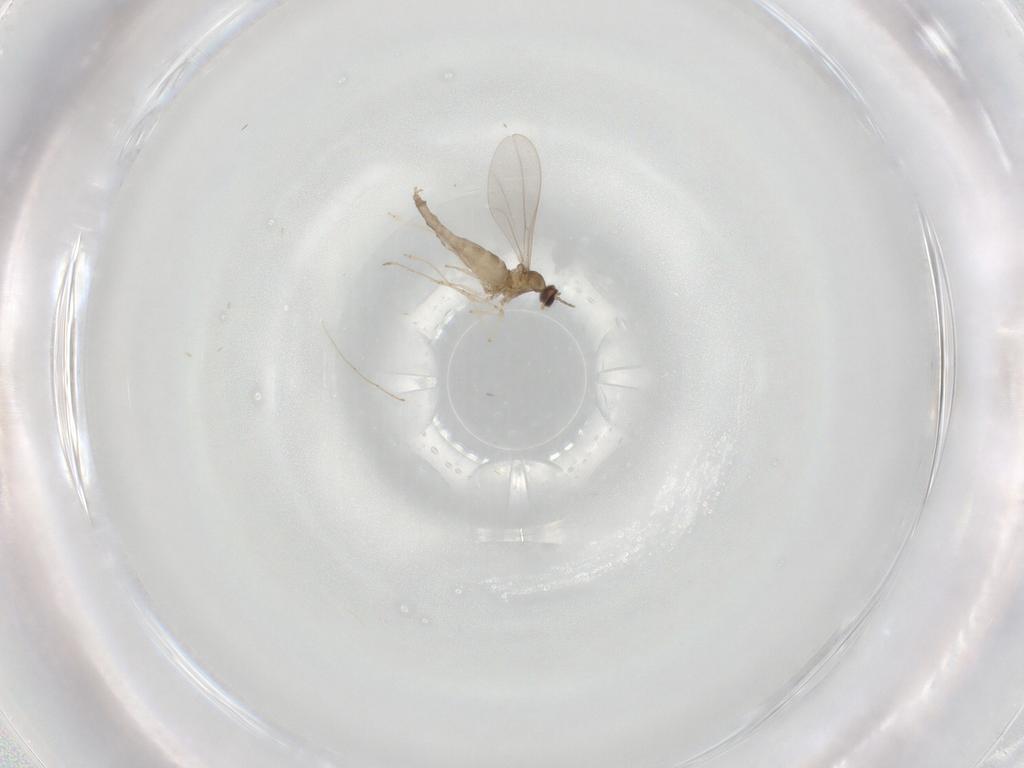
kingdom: Animalia
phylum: Arthropoda
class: Insecta
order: Diptera
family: Cecidomyiidae
